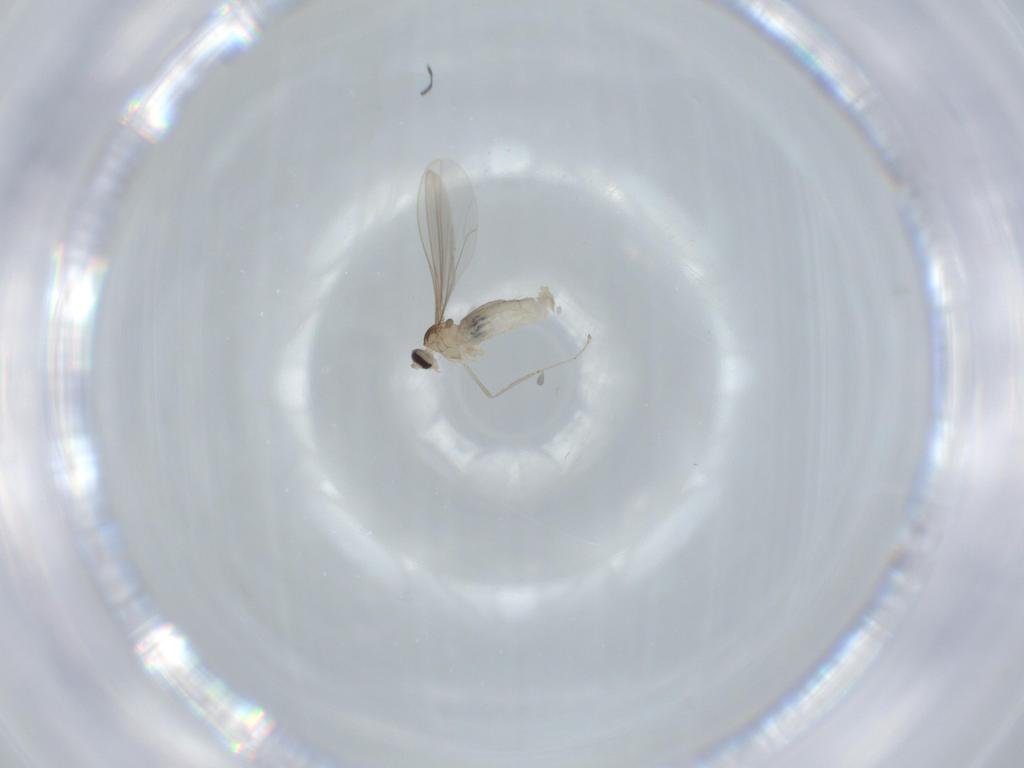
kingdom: Animalia
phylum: Arthropoda
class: Insecta
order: Diptera
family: Cecidomyiidae
